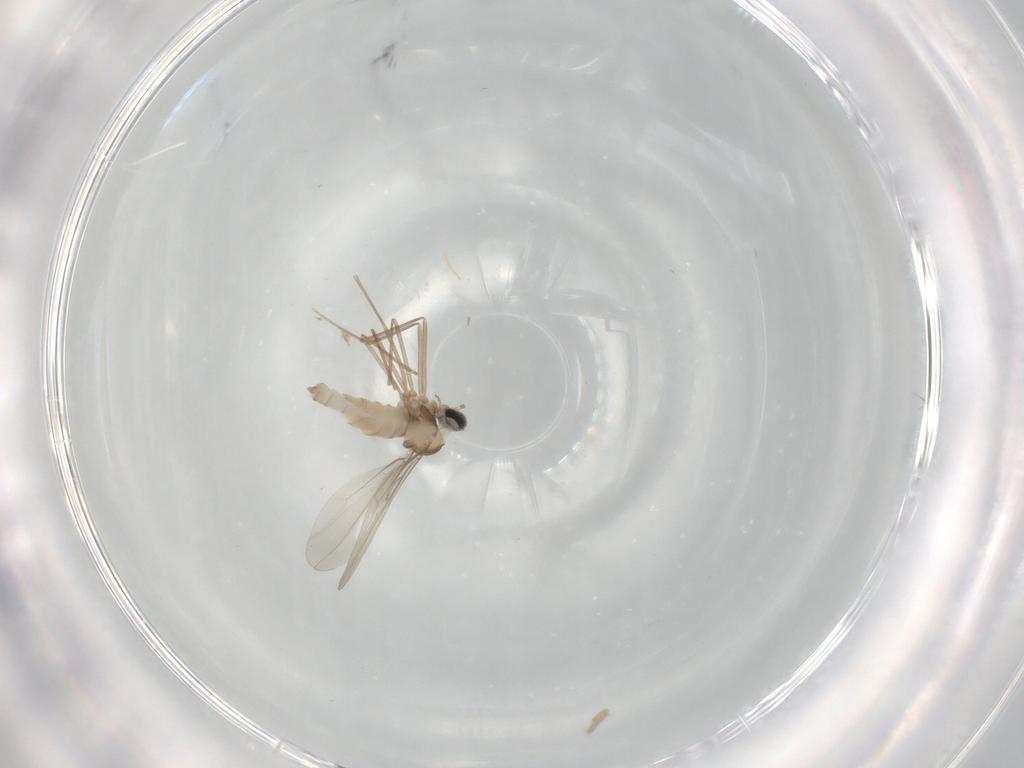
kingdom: Animalia
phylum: Arthropoda
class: Insecta
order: Diptera
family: Cecidomyiidae
